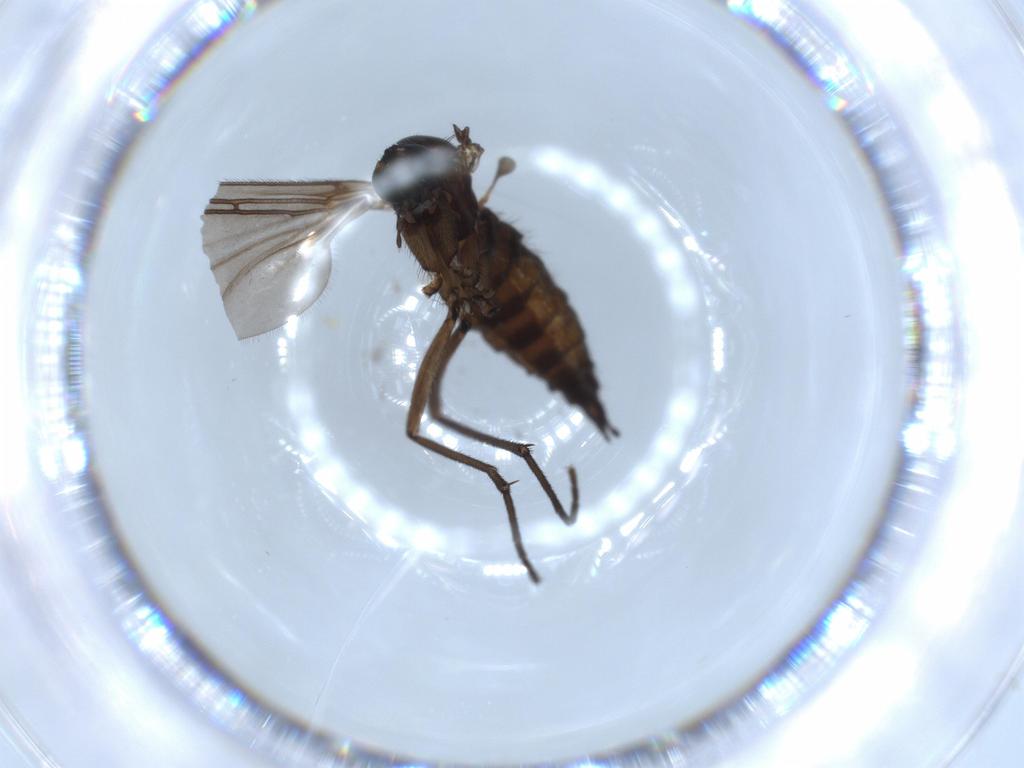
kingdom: Animalia
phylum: Arthropoda
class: Insecta
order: Diptera
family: Sciaridae
